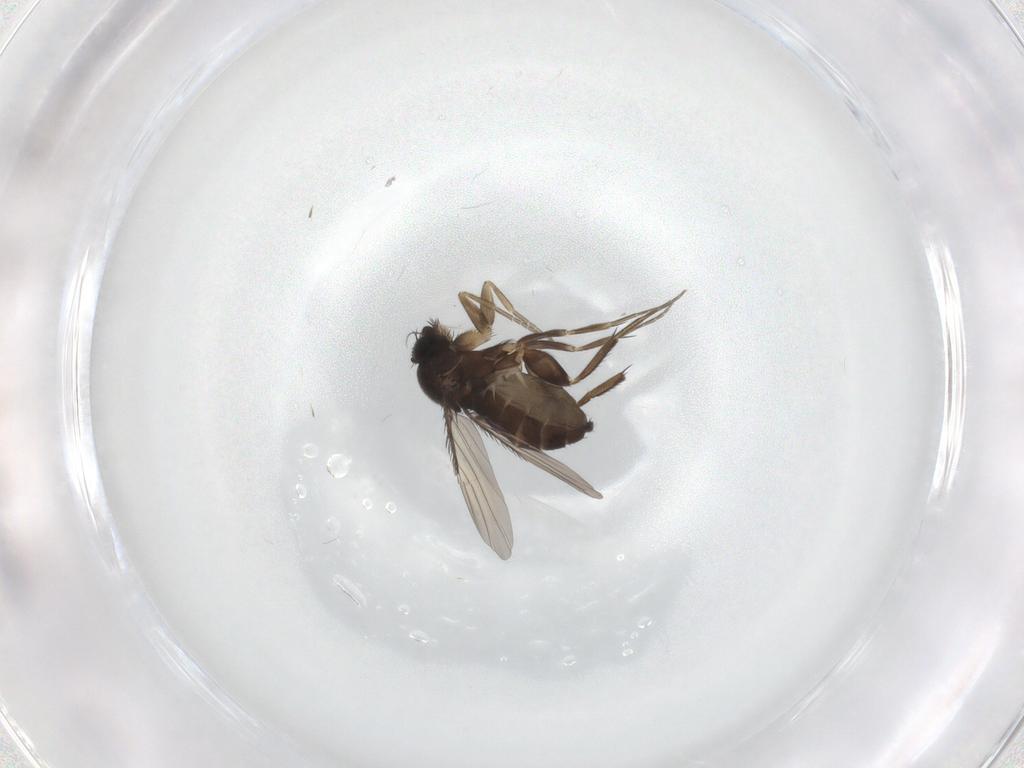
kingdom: Animalia
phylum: Arthropoda
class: Insecta
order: Diptera
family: Phoridae
